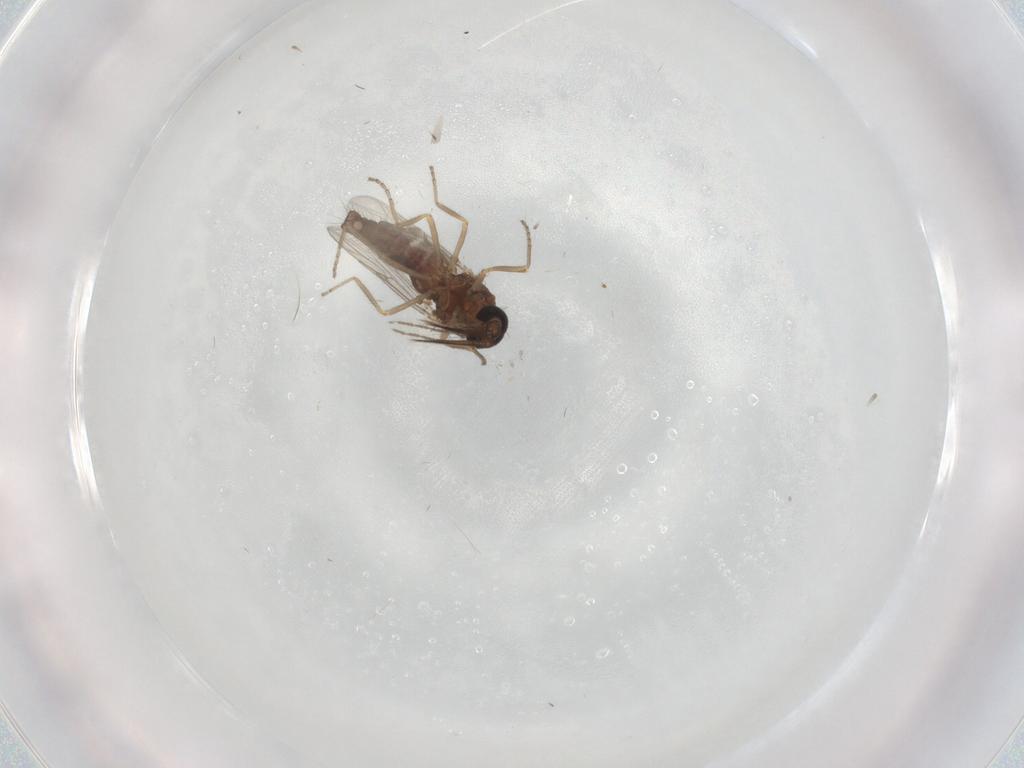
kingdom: Animalia
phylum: Arthropoda
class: Insecta
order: Diptera
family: Ceratopogonidae
